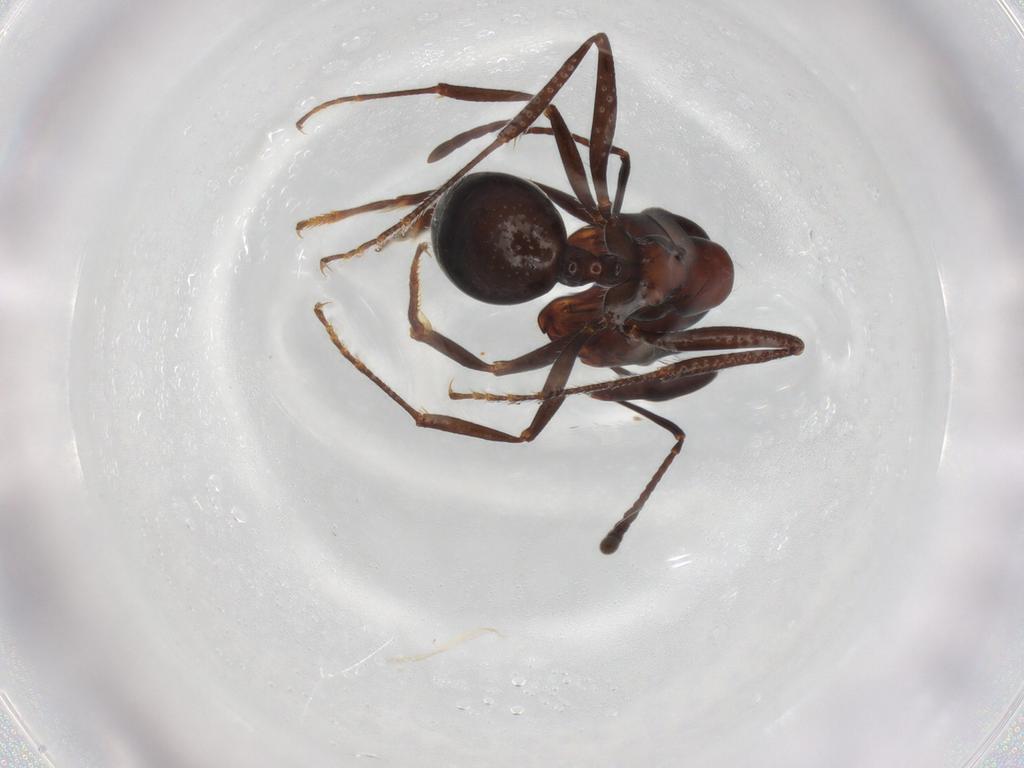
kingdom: Animalia
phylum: Arthropoda
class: Insecta
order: Hymenoptera
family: Formicidae
